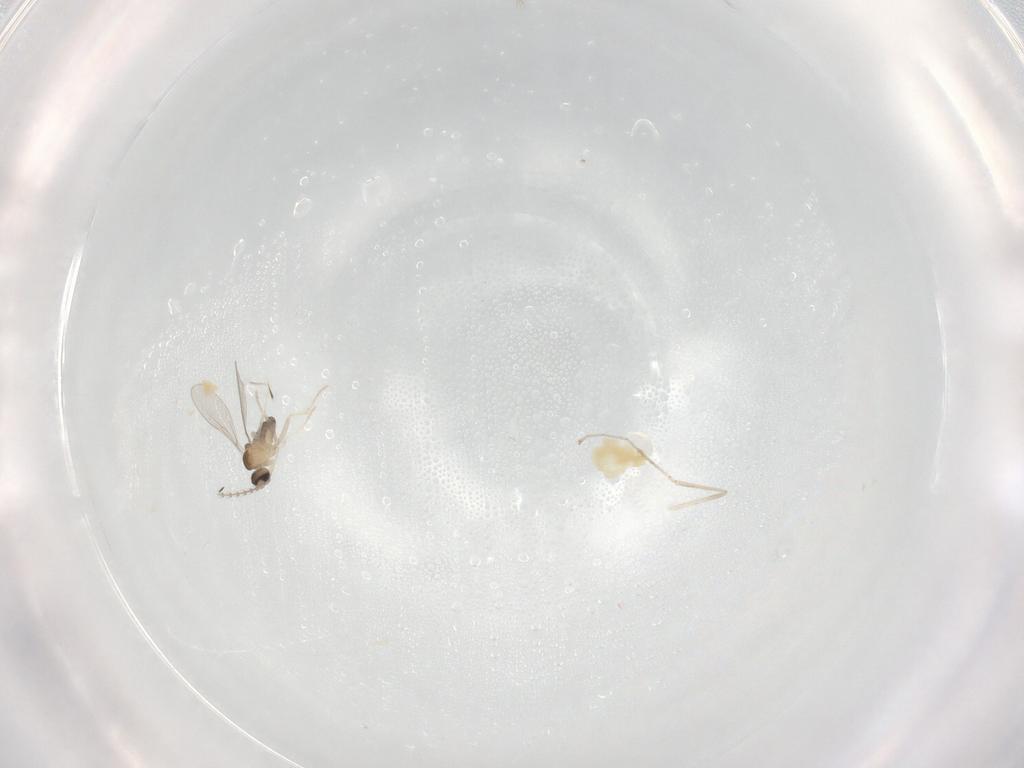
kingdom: Animalia
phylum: Arthropoda
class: Insecta
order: Diptera
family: Cecidomyiidae
